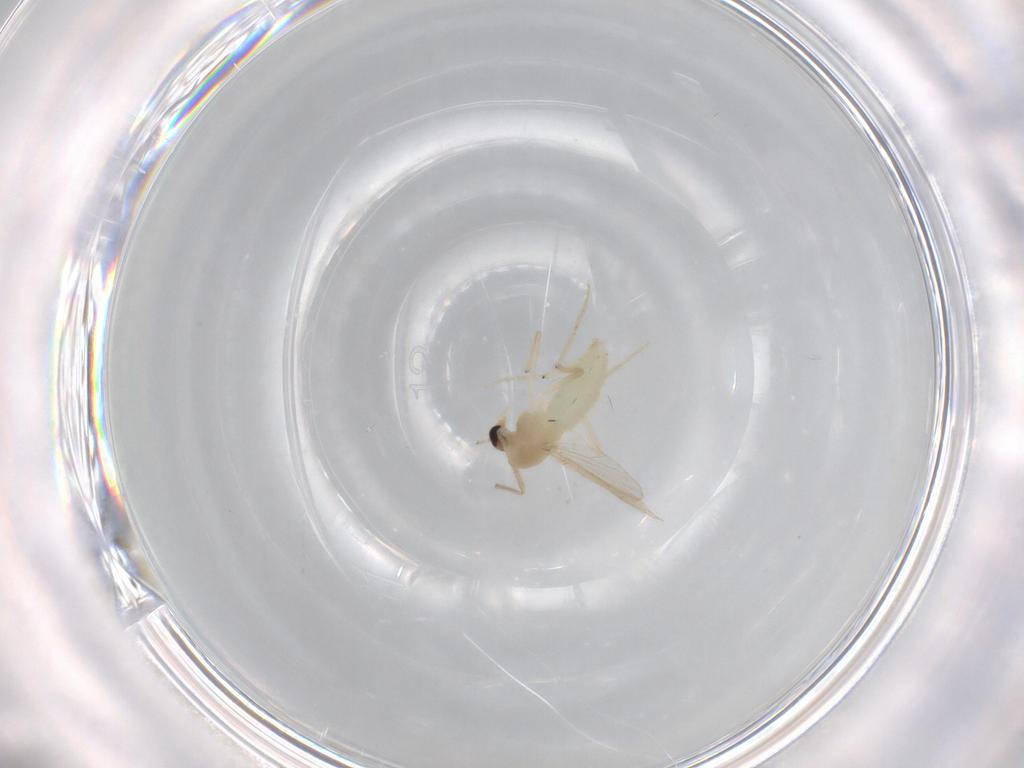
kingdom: Animalia
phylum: Arthropoda
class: Insecta
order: Diptera
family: Chironomidae
